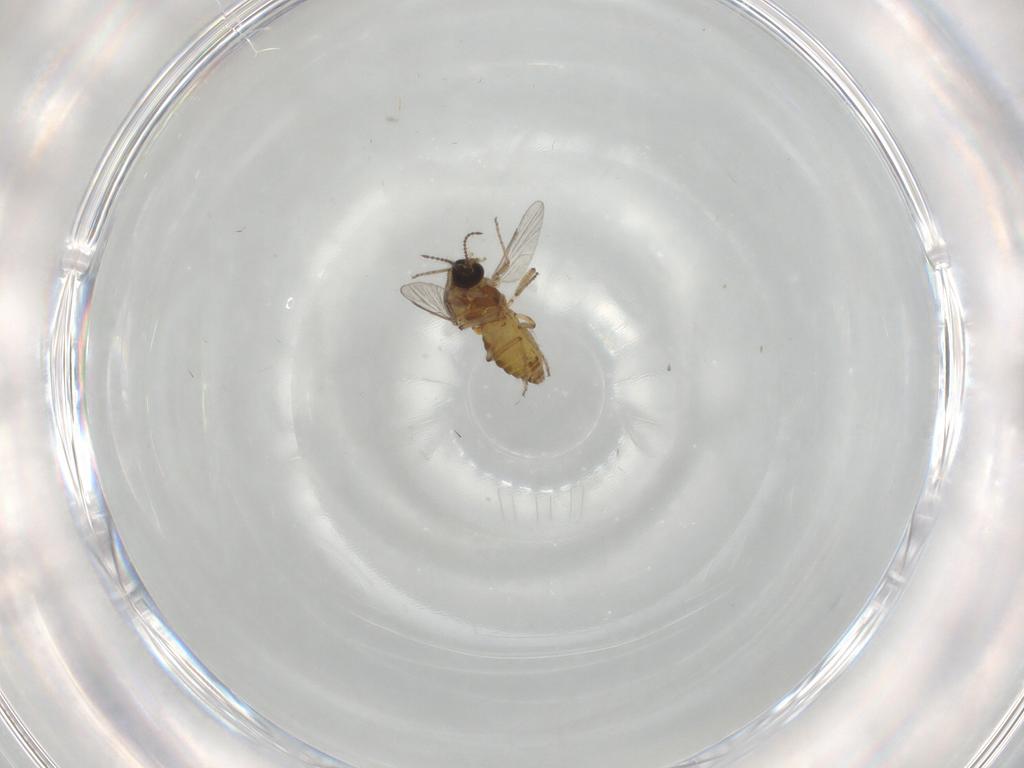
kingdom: Animalia
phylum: Arthropoda
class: Insecta
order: Diptera
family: Ceratopogonidae
